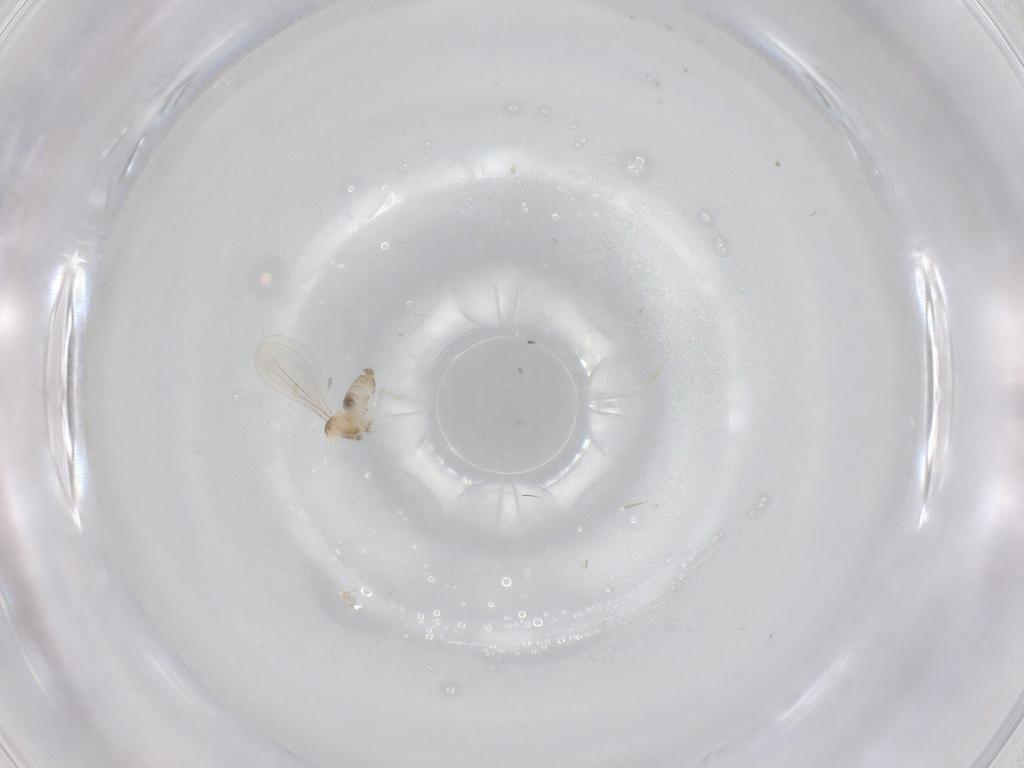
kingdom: Animalia
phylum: Arthropoda
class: Insecta
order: Diptera
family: Cecidomyiidae
